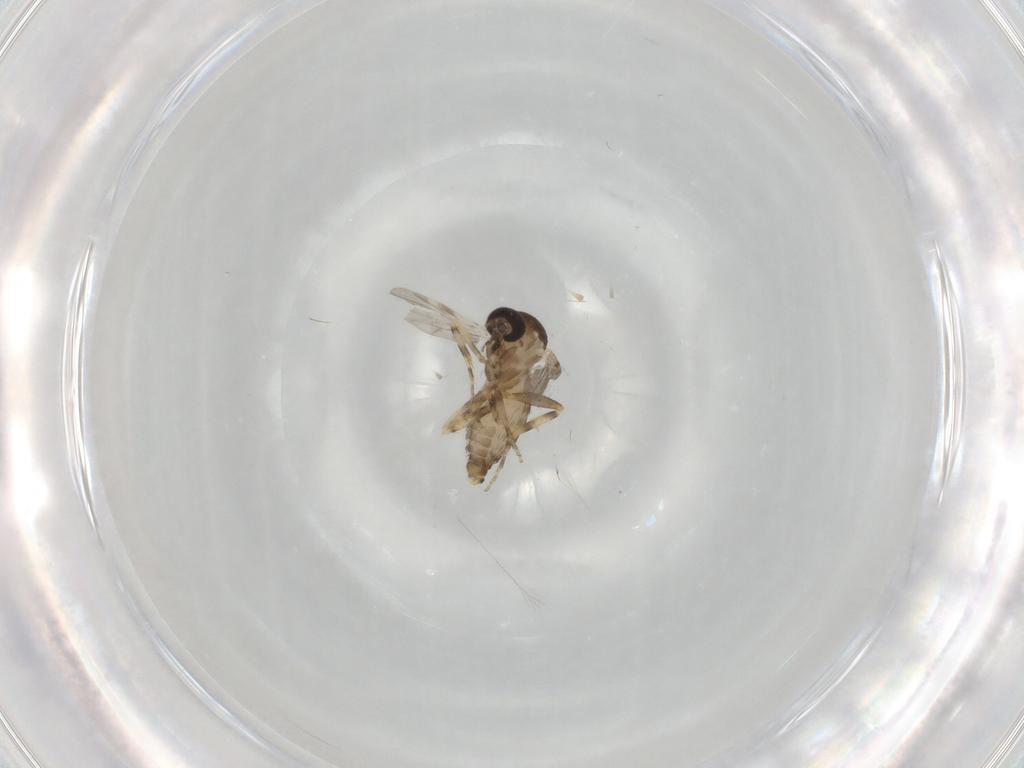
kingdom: Animalia
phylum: Arthropoda
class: Insecta
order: Diptera
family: Ceratopogonidae
